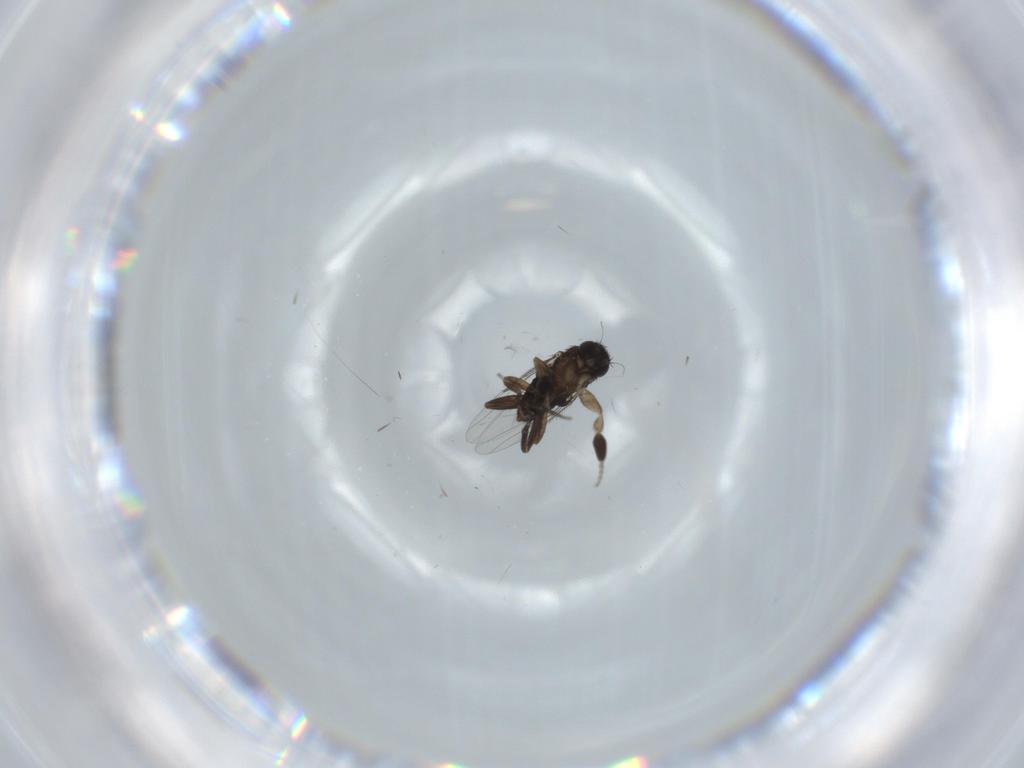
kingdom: Animalia
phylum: Arthropoda
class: Insecta
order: Diptera
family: Phoridae
